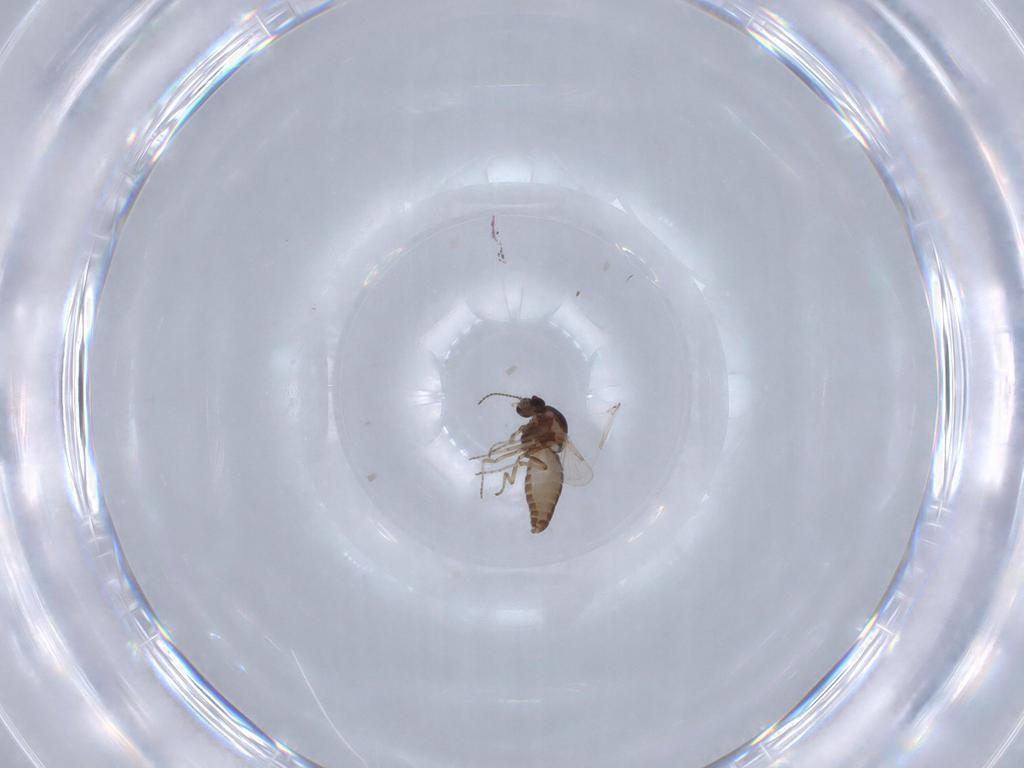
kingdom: Animalia
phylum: Arthropoda
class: Insecta
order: Diptera
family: Ceratopogonidae
